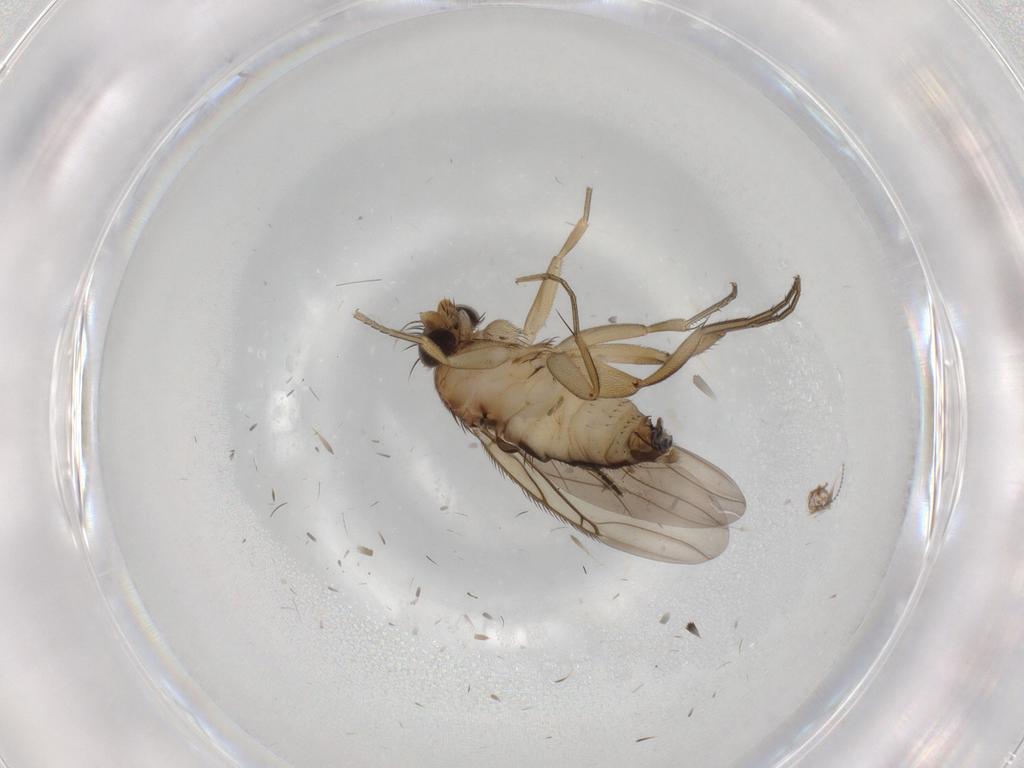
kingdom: Animalia
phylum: Arthropoda
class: Insecta
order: Diptera
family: Phoridae
